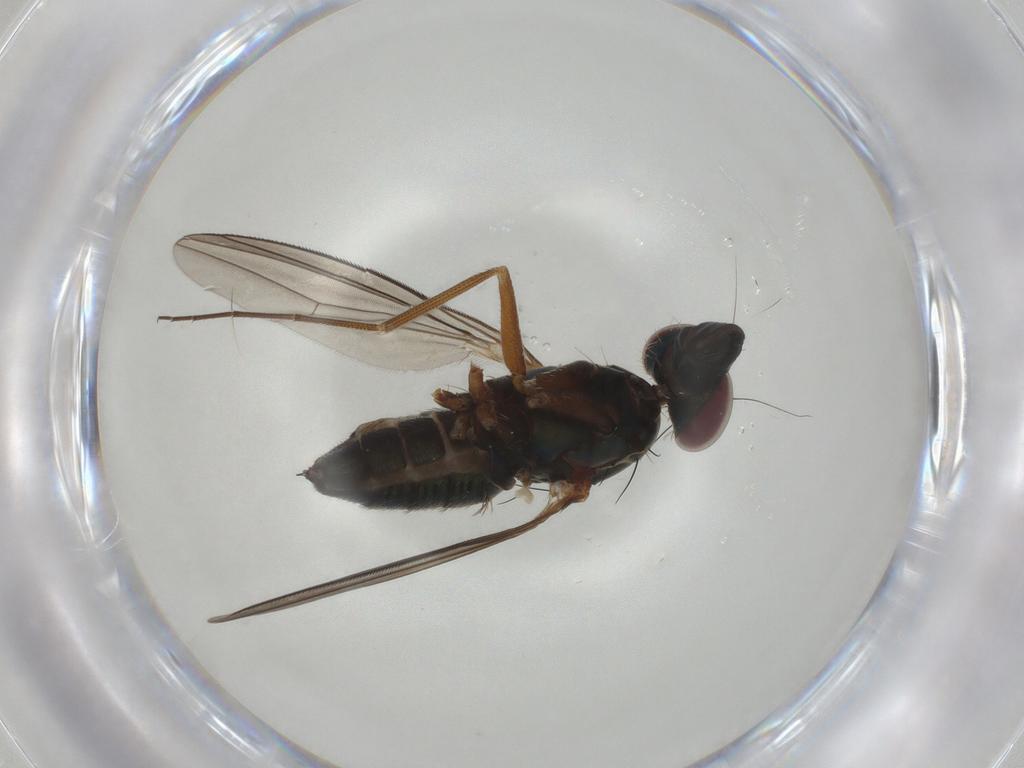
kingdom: Animalia
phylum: Arthropoda
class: Insecta
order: Diptera
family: Dolichopodidae
